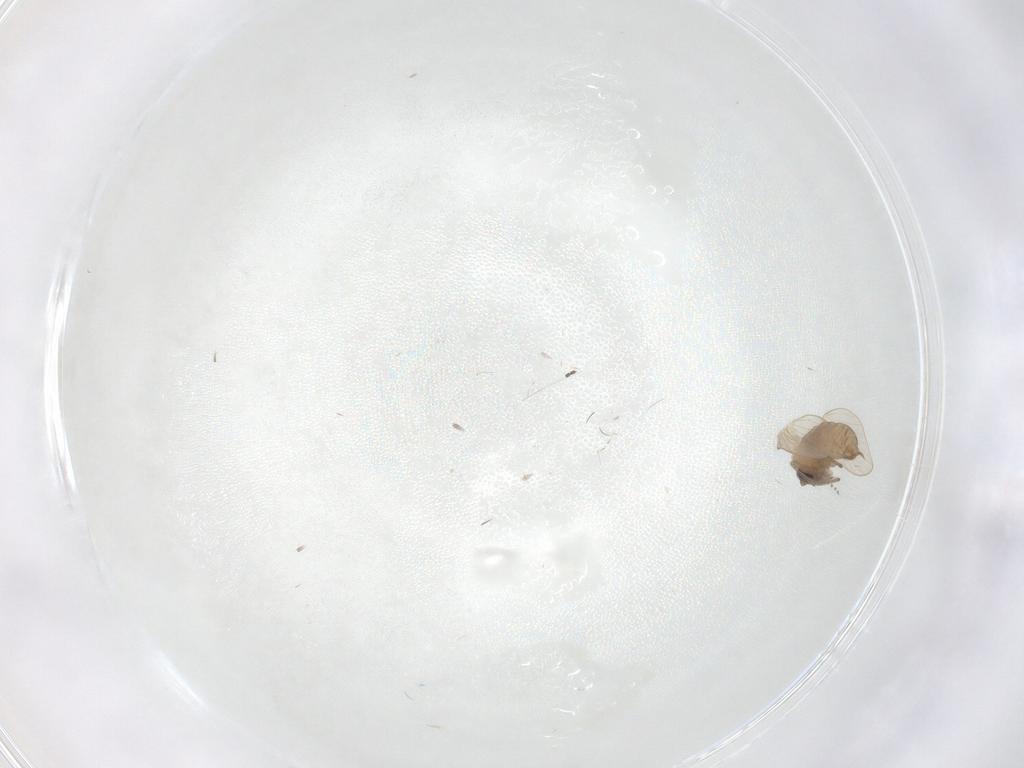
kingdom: Animalia
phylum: Arthropoda
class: Insecta
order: Diptera
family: Psychodidae
